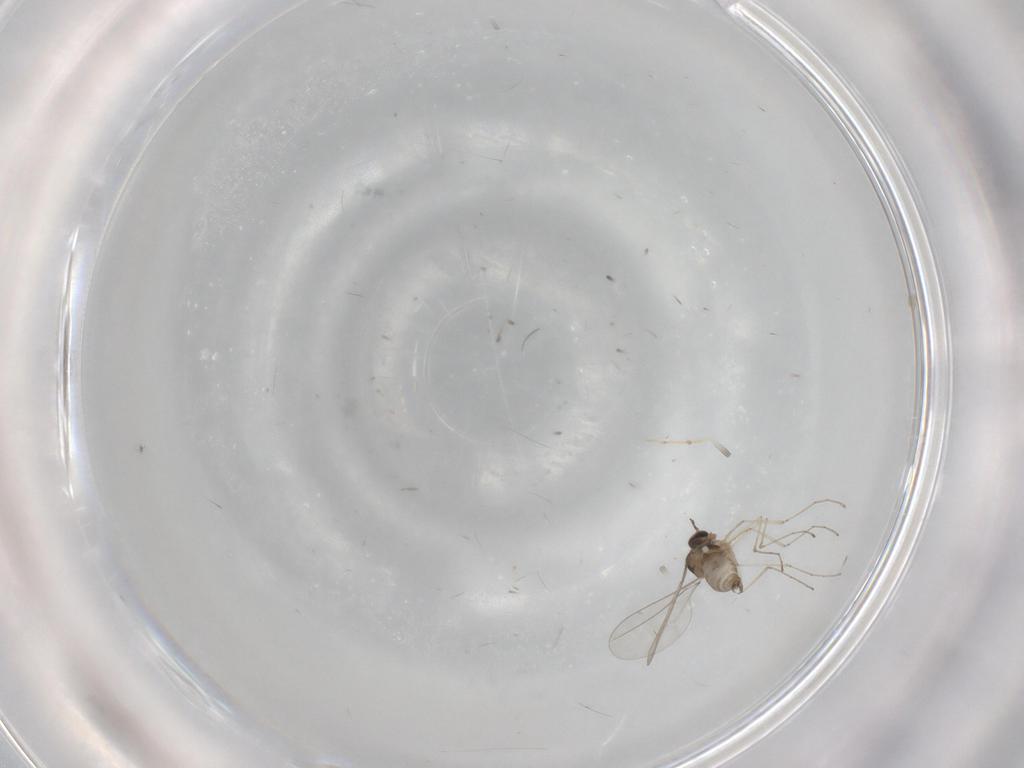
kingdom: Animalia
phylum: Arthropoda
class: Insecta
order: Diptera
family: Cecidomyiidae
